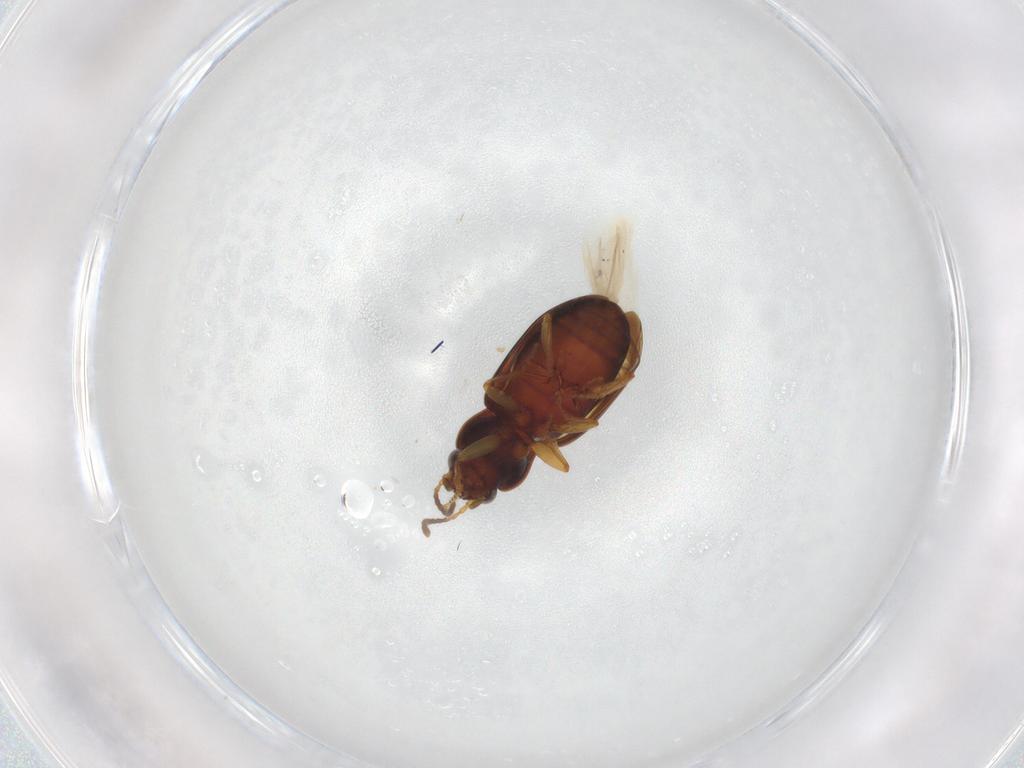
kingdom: Animalia
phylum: Arthropoda
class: Insecta
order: Coleoptera
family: Carabidae
